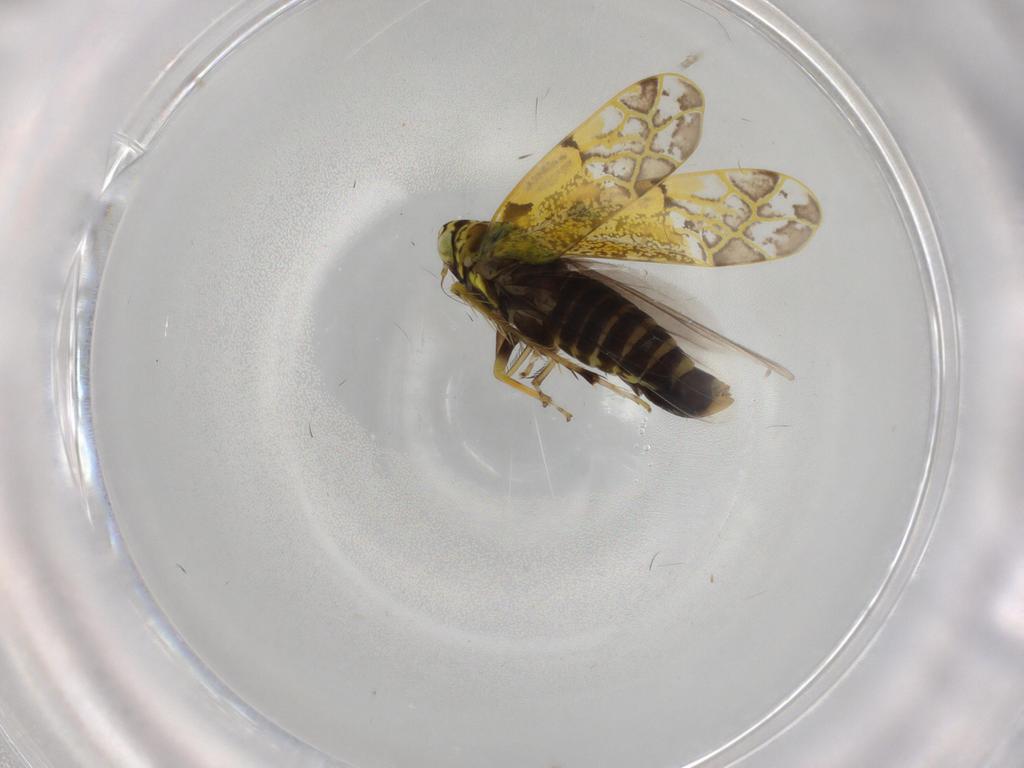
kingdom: Animalia
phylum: Arthropoda
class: Insecta
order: Hemiptera
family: Cicadellidae
